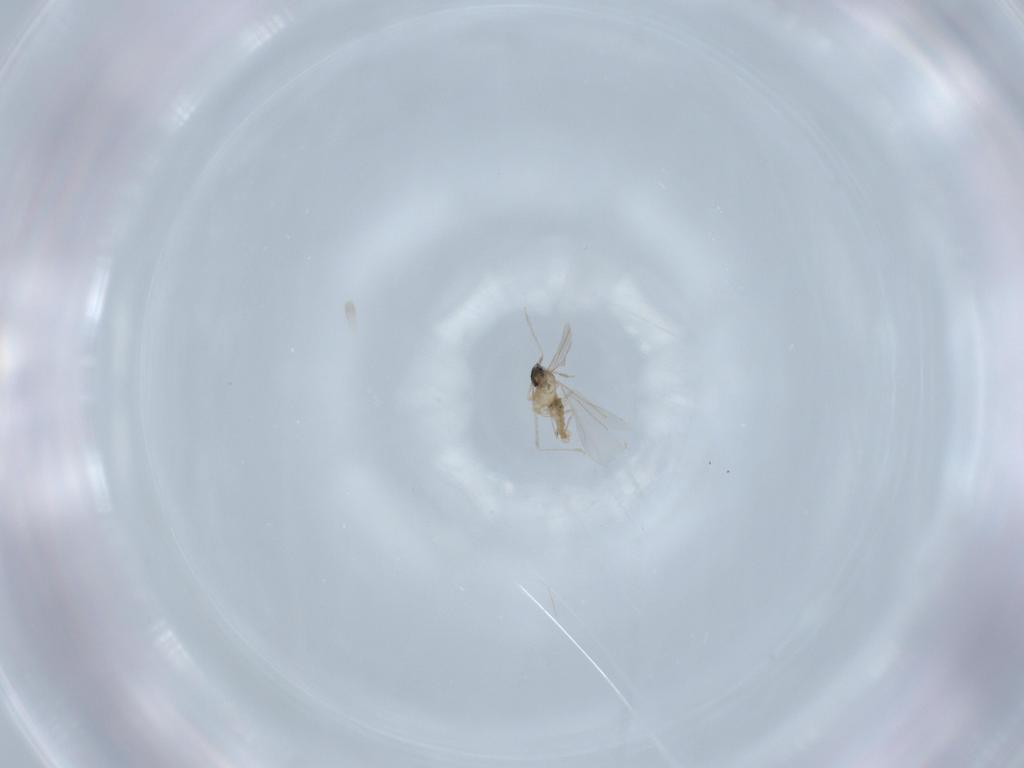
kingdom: Animalia
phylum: Arthropoda
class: Insecta
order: Diptera
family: Cecidomyiidae
